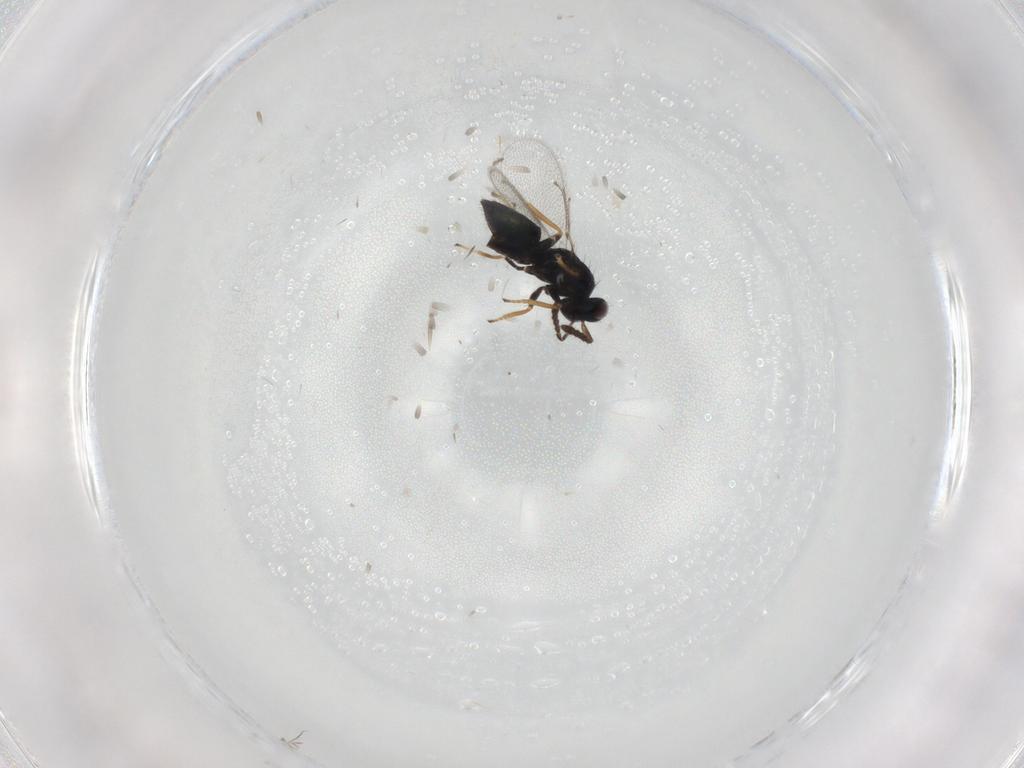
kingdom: Animalia
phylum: Arthropoda
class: Insecta
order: Hymenoptera
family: Eulophidae
